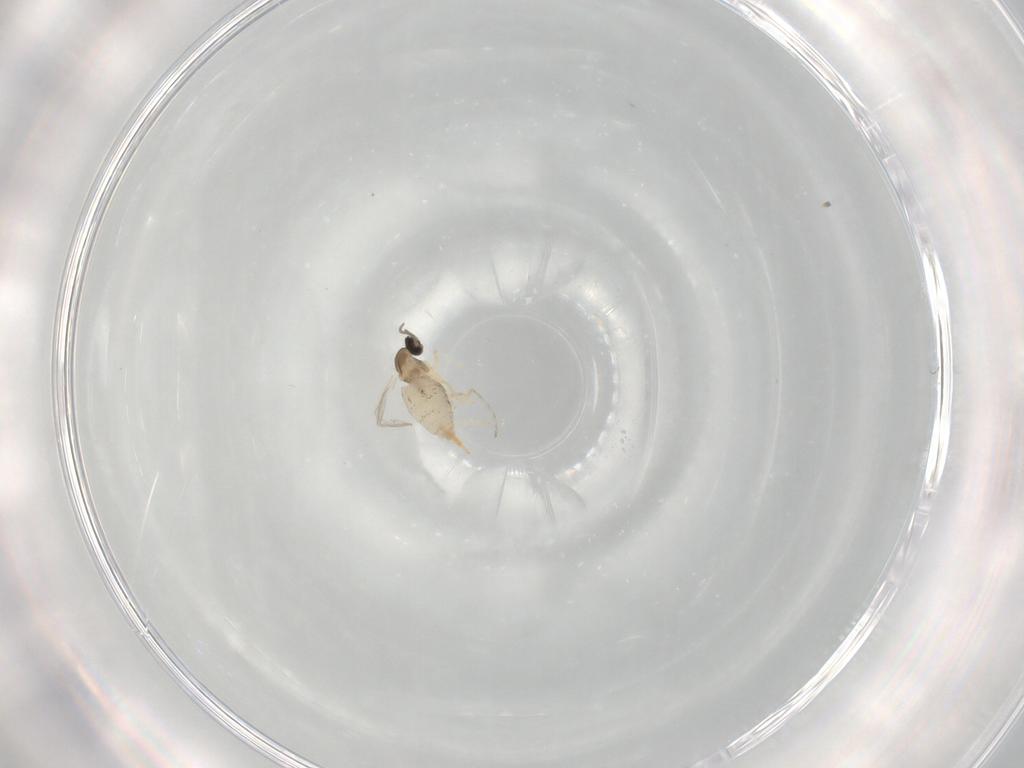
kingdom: Animalia
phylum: Arthropoda
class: Insecta
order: Diptera
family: Cecidomyiidae
